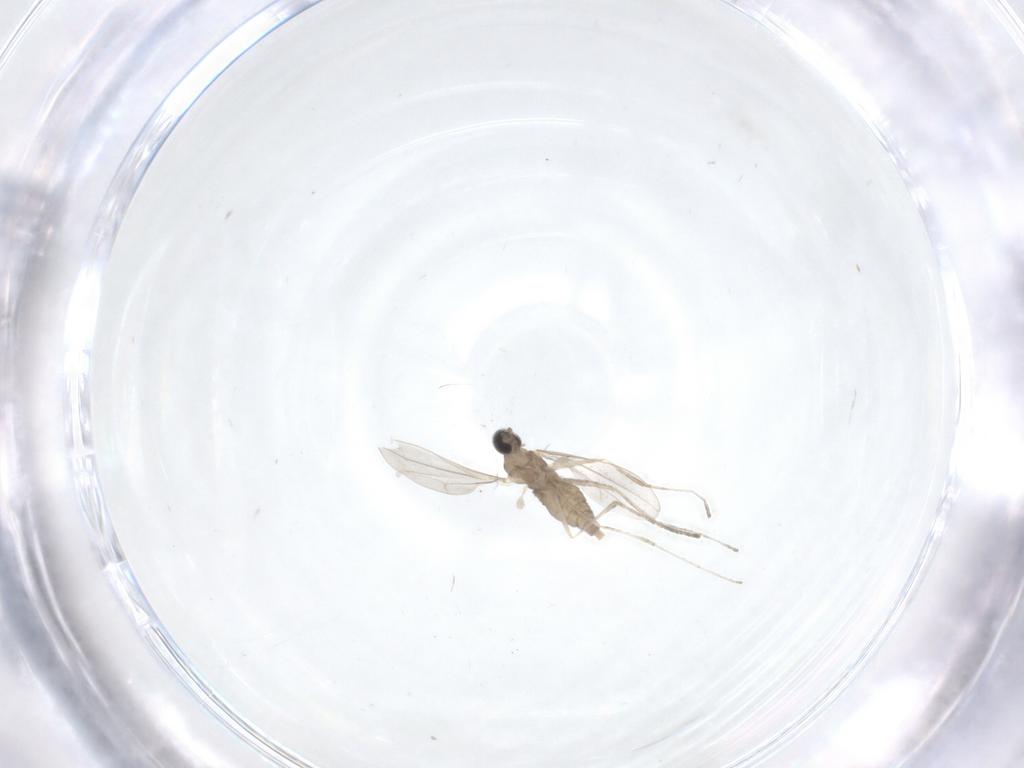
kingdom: Animalia
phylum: Arthropoda
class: Insecta
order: Diptera
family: Cecidomyiidae
